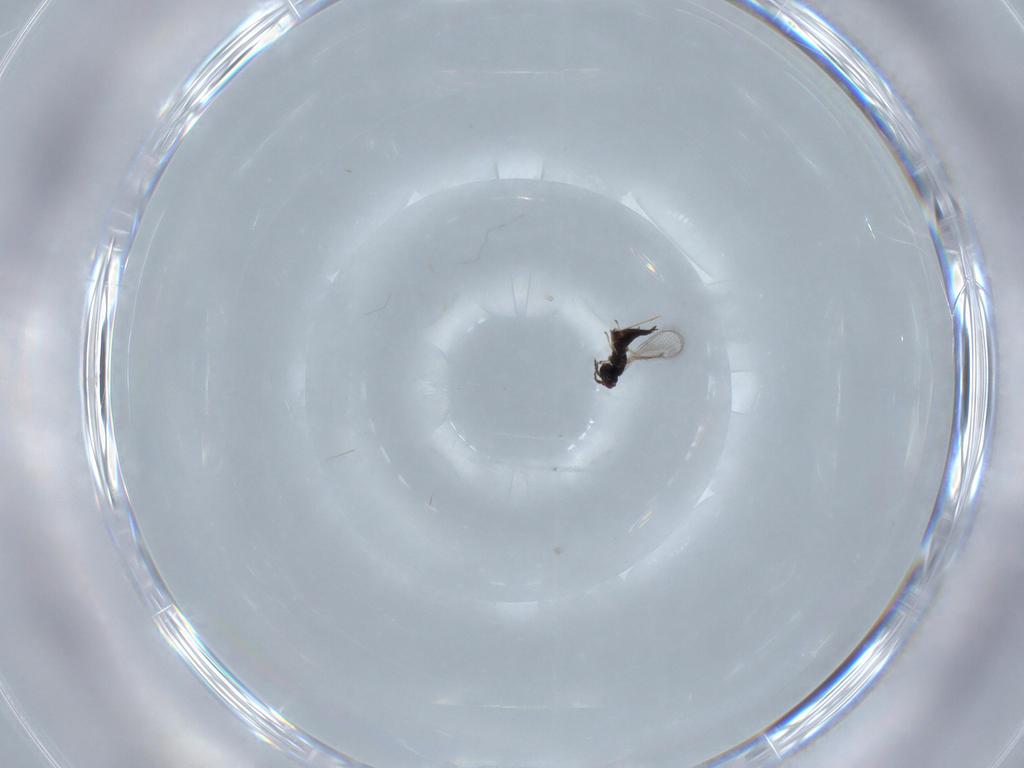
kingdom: Animalia
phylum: Arthropoda
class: Insecta
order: Hymenoptera
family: Eulophidae
